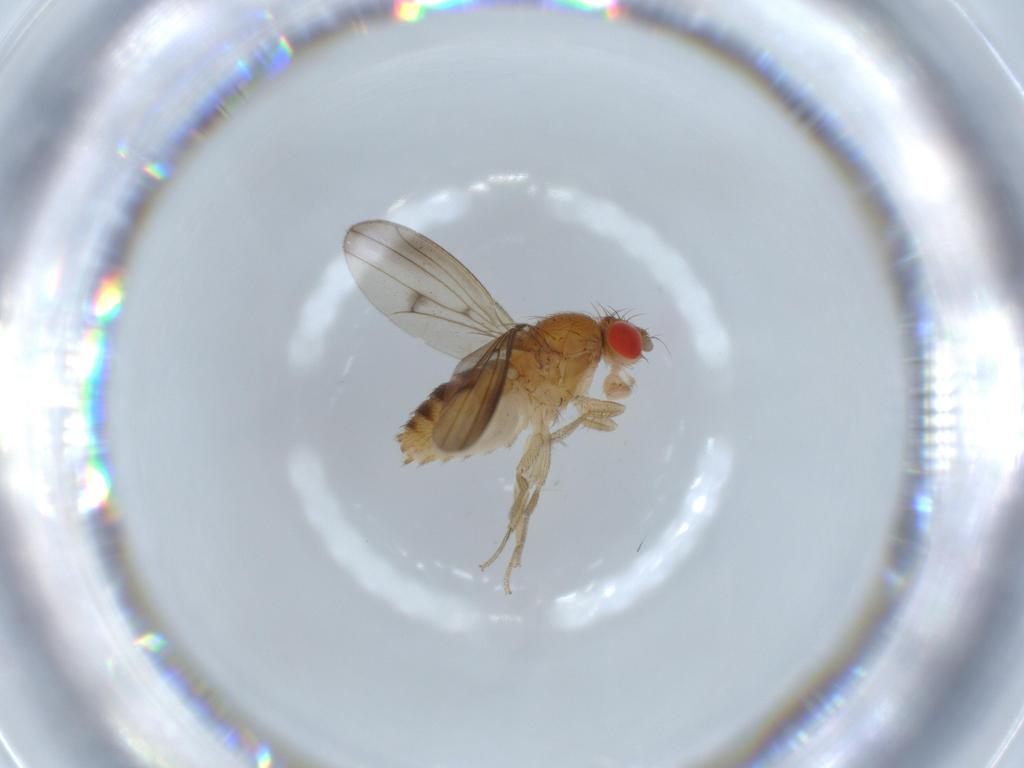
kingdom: Animalia
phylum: Arthropoda
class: Insecta
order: Diptera
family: Drosophilidae
